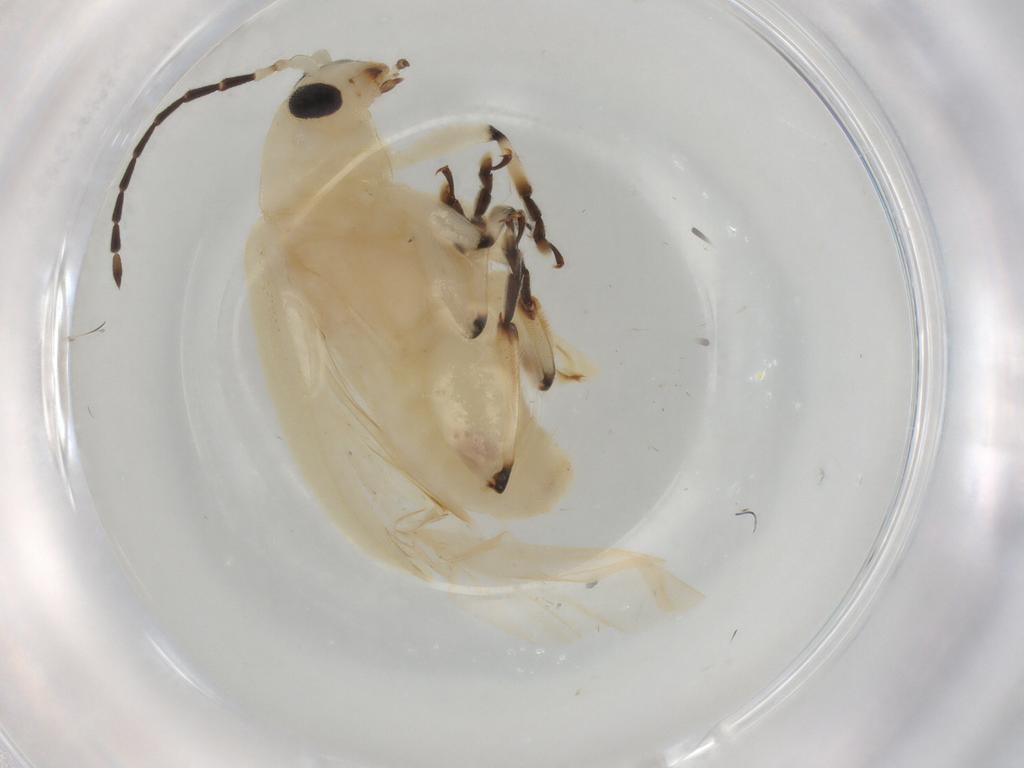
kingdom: Animalia
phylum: Arthropoda
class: Insecta
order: Coleoptera
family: Chrysomelidae
